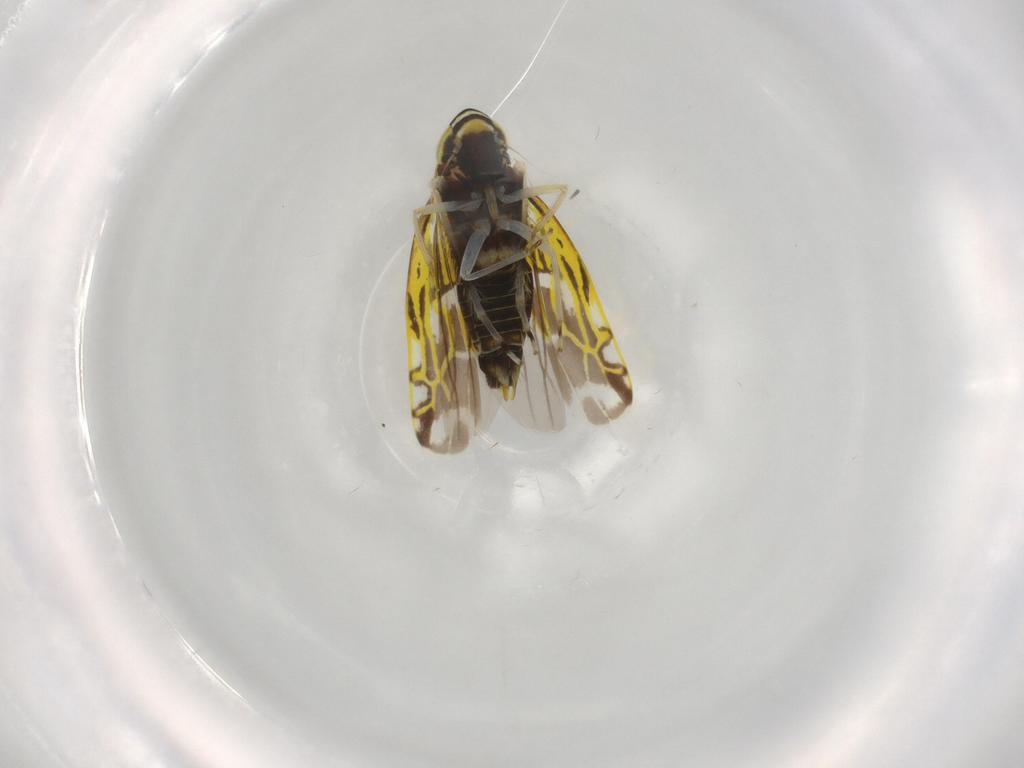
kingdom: Animalia
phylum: Arthropoda
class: Insecta
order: Hemiptera
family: Cicadellidae
